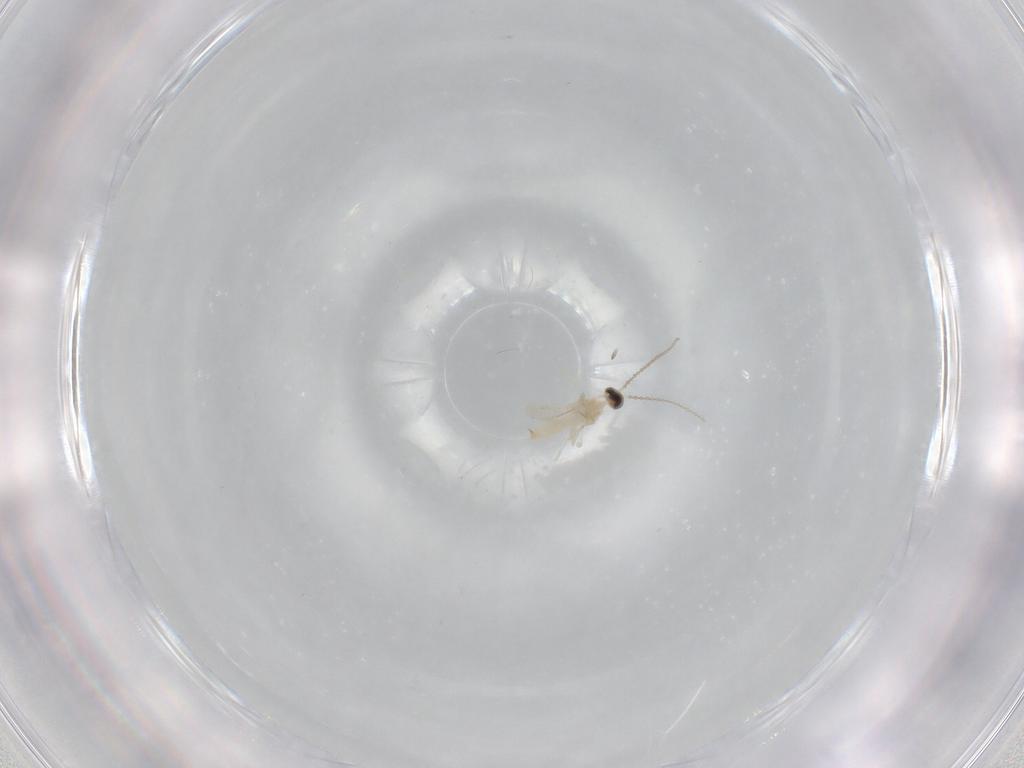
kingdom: Animalia
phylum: Arthropoda
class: Insecta
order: Diptera
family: Cecidomyiidae
